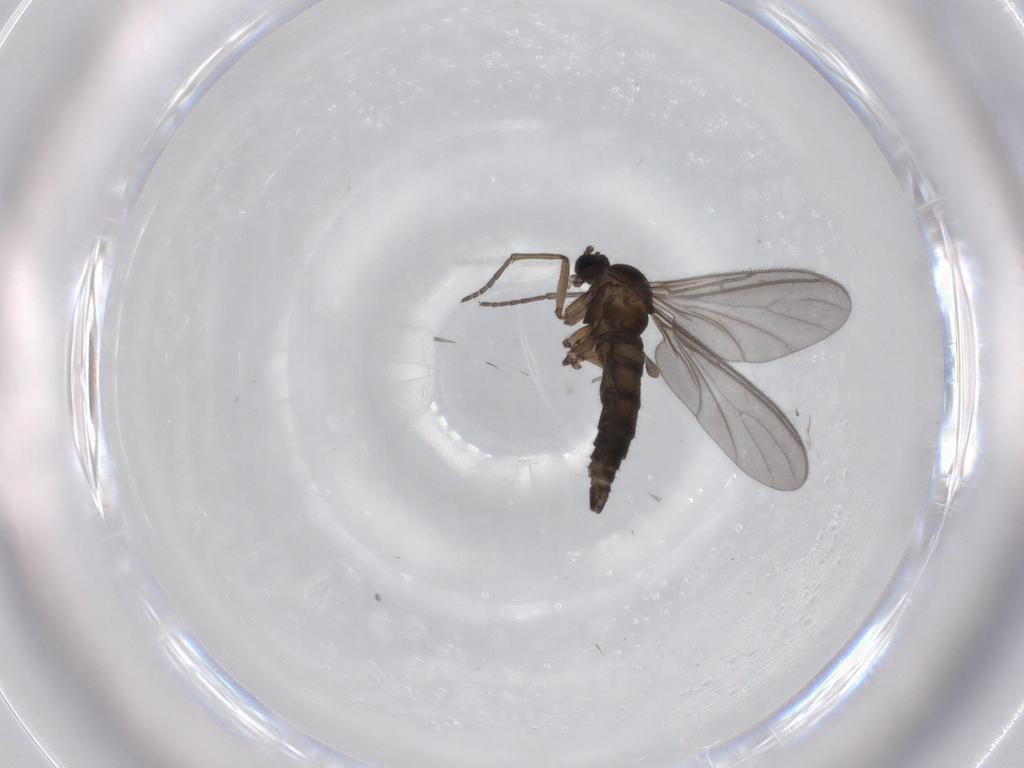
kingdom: Animalia
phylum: Arthropoda
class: Insecta
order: Diptera
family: Sciaridae
